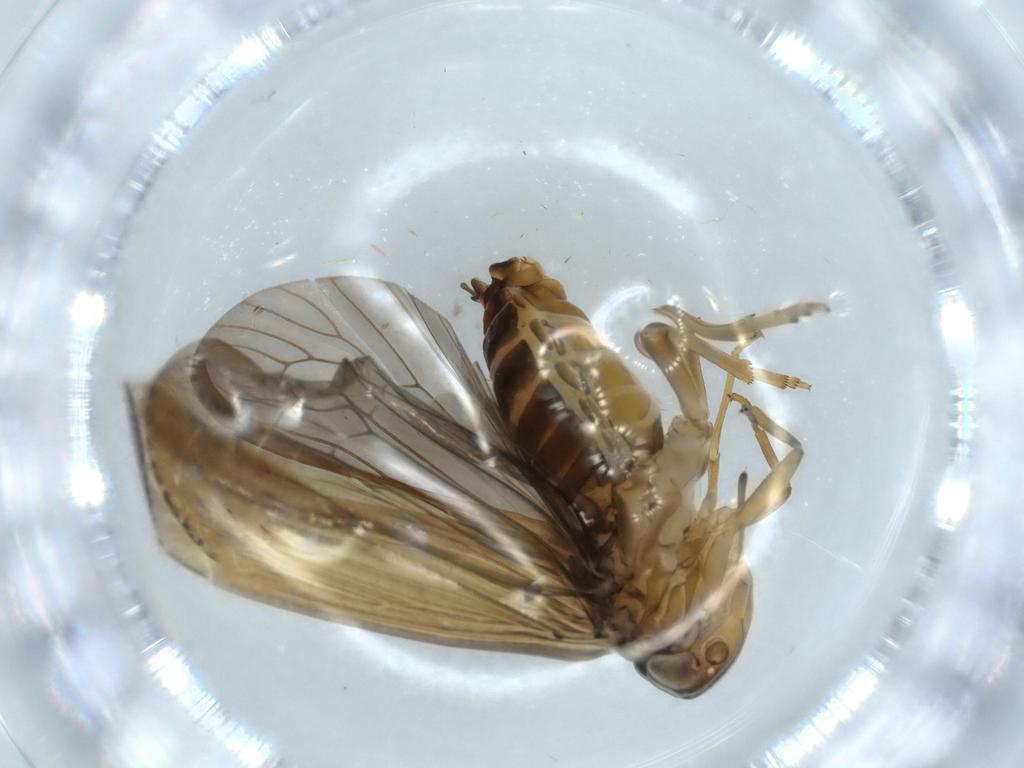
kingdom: Animalia
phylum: Arthropoda
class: Insecta
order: Hemiptera
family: Achilidae
